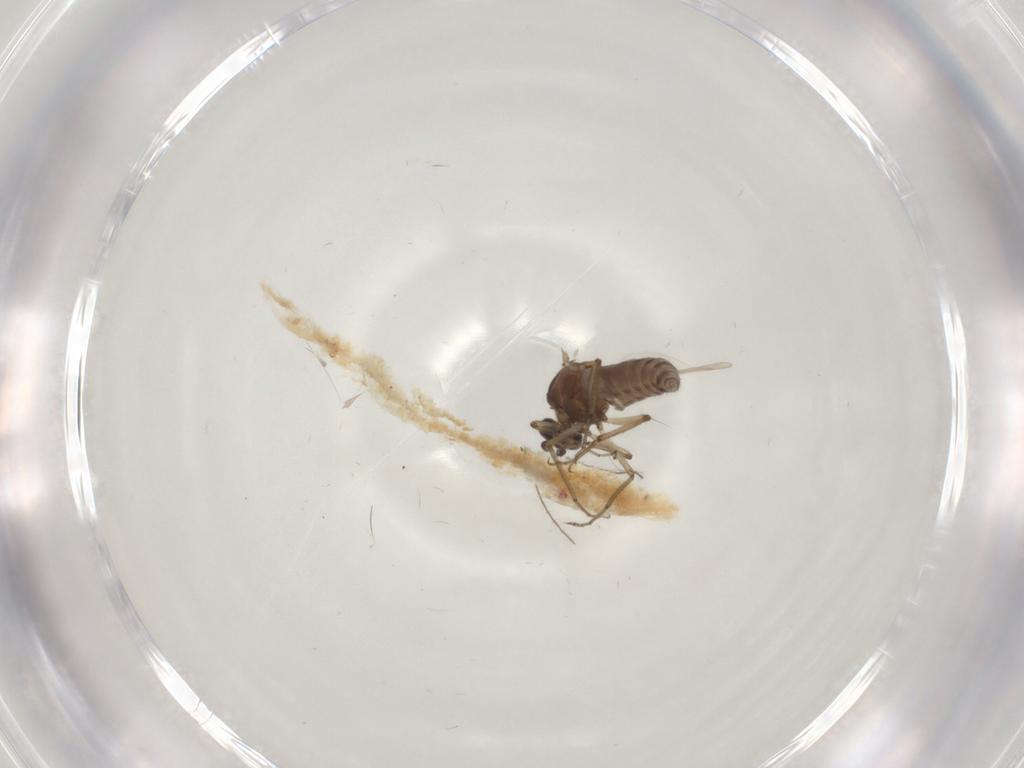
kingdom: Animalia
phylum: Arthropoda
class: Insecta
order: Diptera
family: Ceratopogonidae
